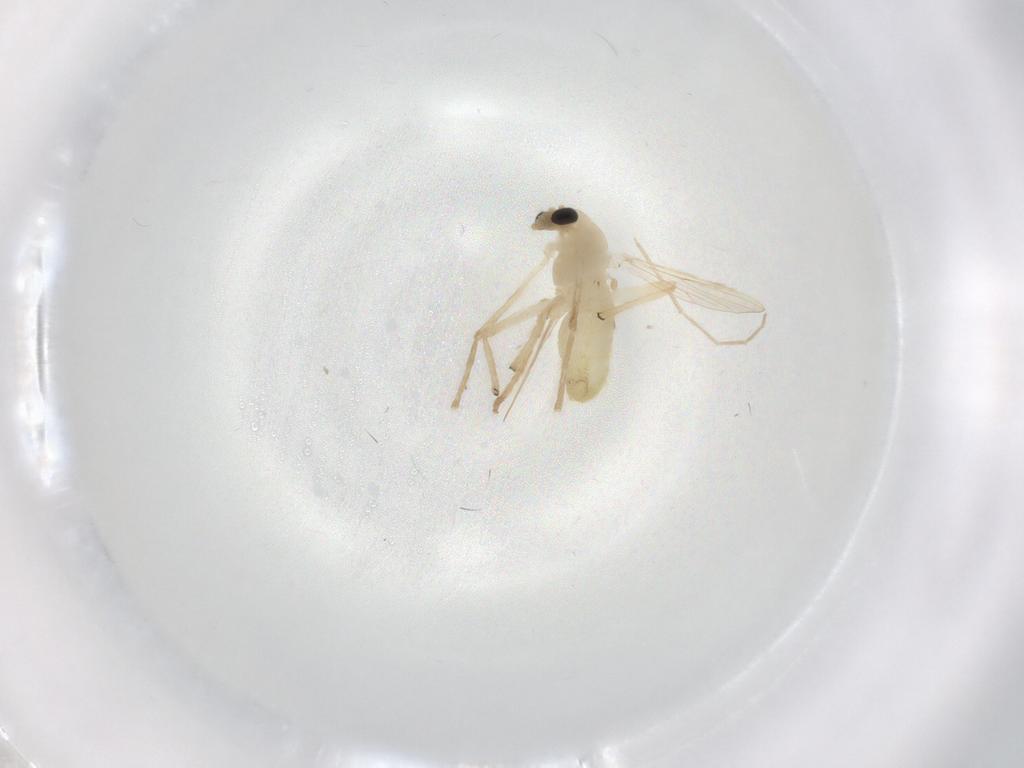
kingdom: Animalia
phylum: Arthropoda
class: Insecta
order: Diptera
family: Chironomidae
